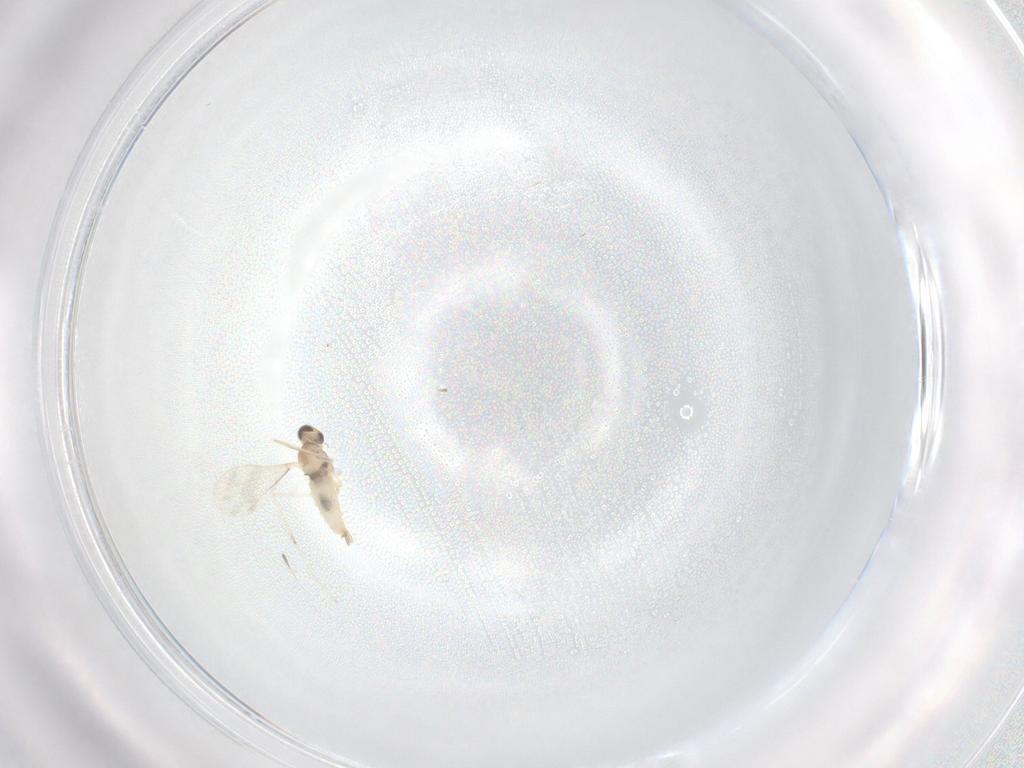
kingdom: Animalia
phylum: Arthropoda
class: Insecta
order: Diptera
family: Cecidomyiidae
